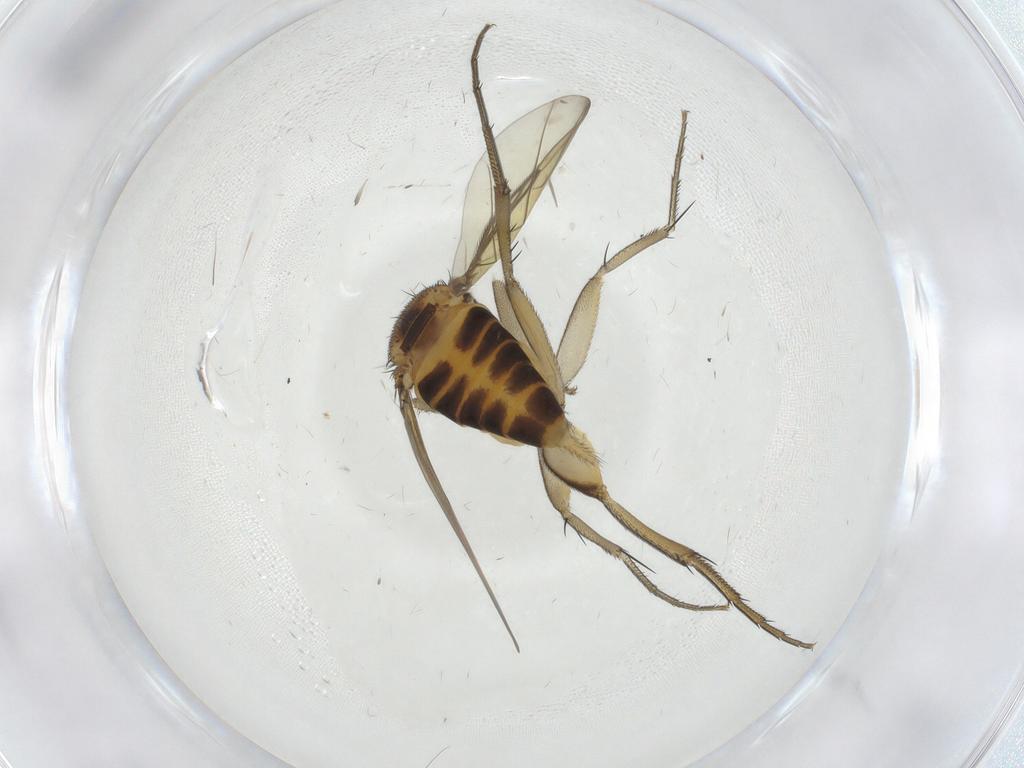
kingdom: Animalia
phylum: Arthropoda
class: Insecta
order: Diptera
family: Phoridae
